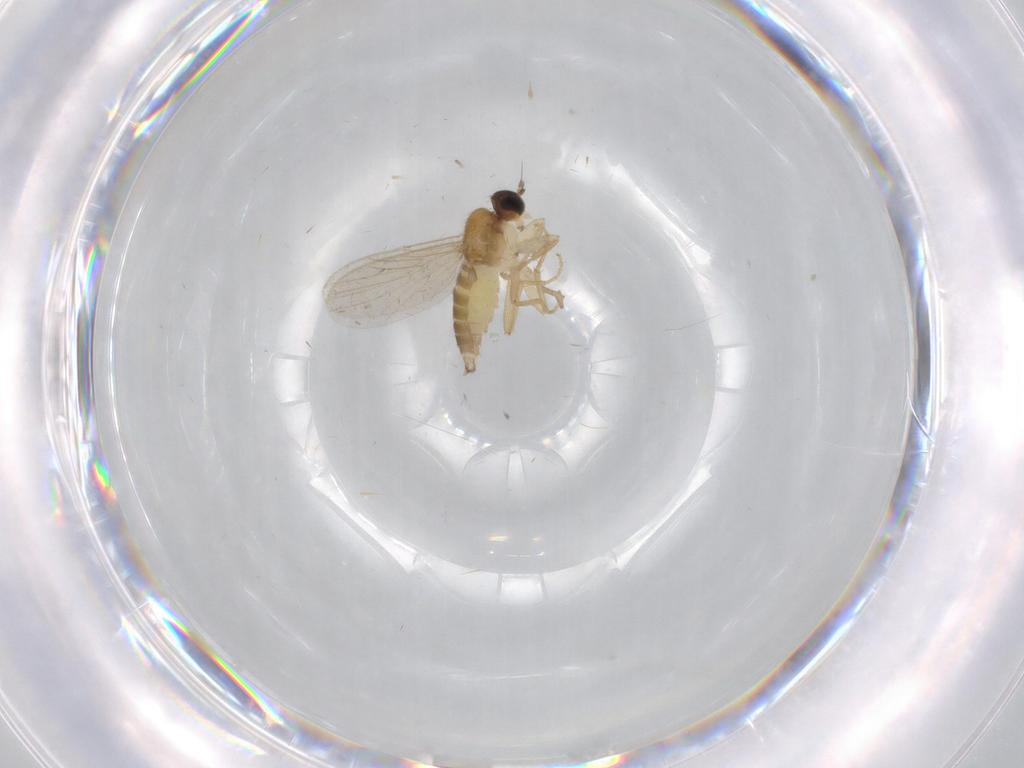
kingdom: Animalia
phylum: Arthropoda
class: Insecta
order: Diptera
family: Hybotidae
